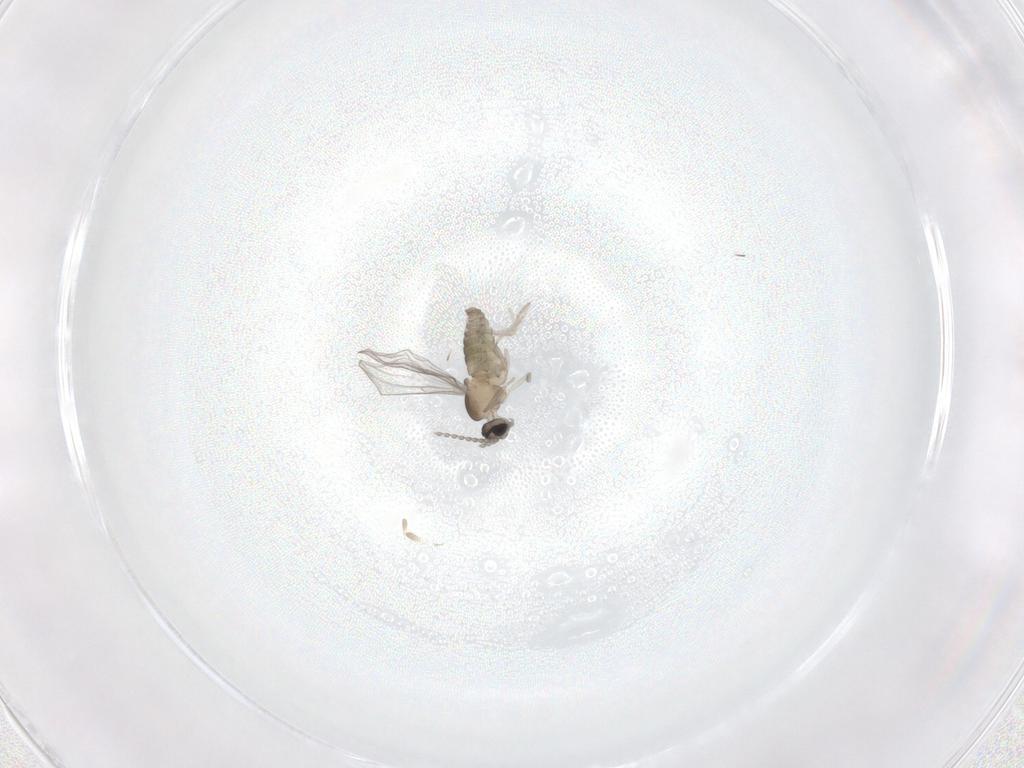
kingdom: Animalia
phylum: Arthropoda
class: Insecta
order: Diptera
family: Cecidomyiidae
